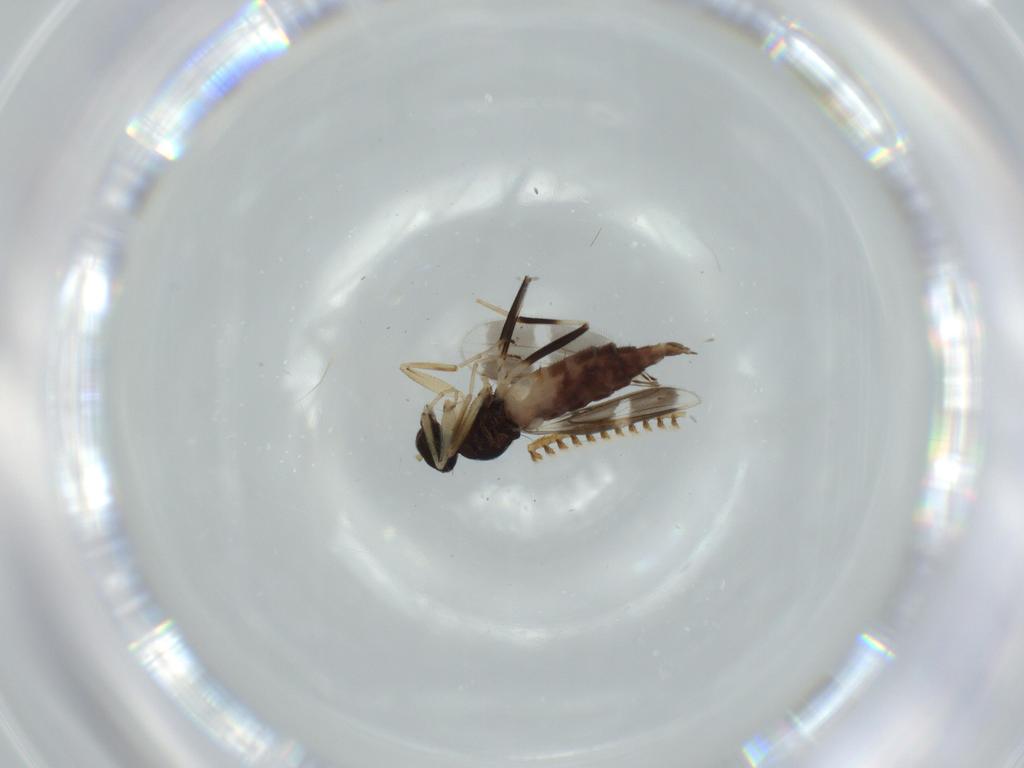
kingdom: Animalia
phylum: Arthropoda
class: Insecta
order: Diptera
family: Hybotidae
